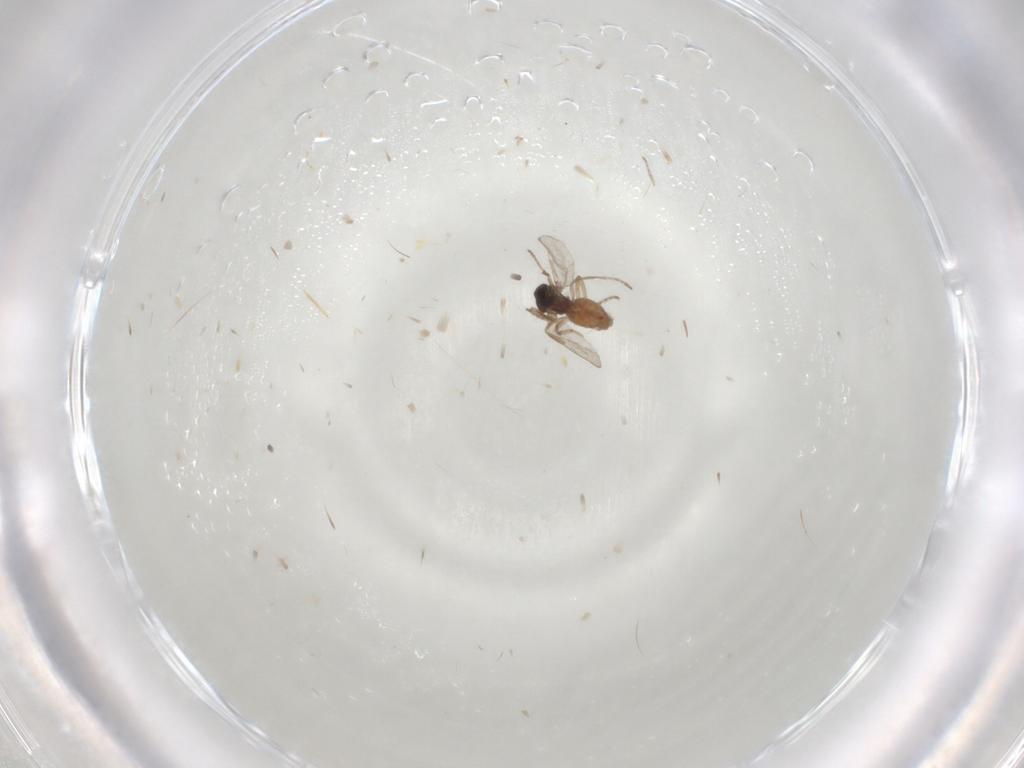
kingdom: Animalia
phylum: Arthropoda
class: Insecta
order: Diptera
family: Ceratopogonidae
